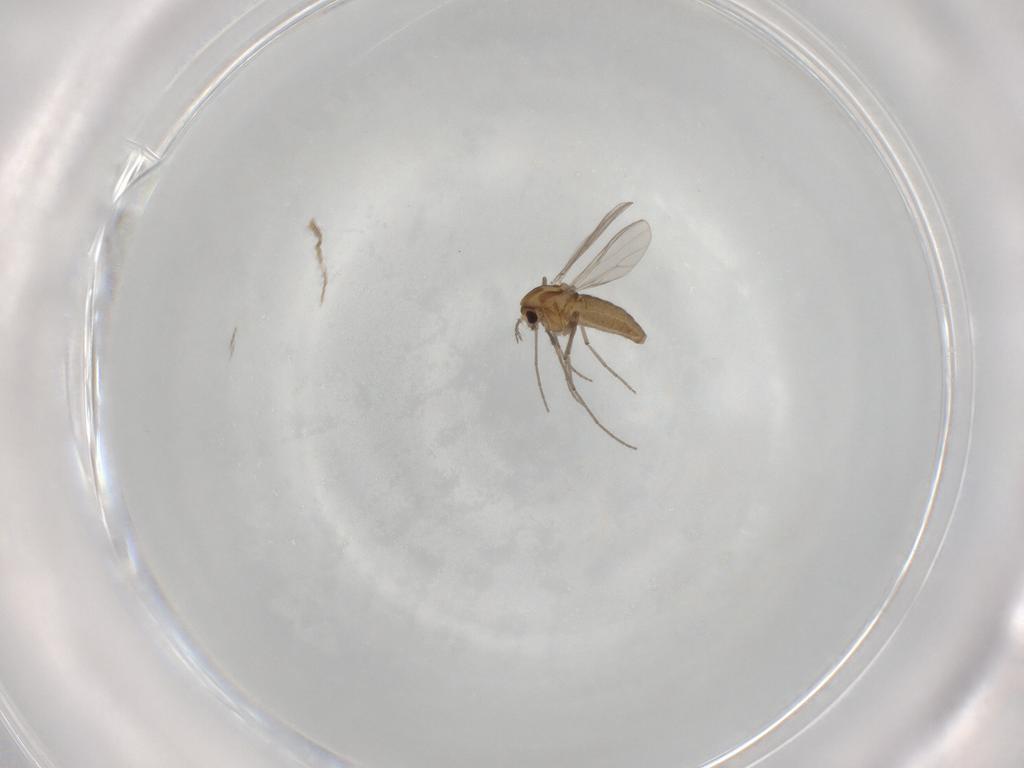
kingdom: Animalia
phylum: Arthropoda
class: Insecta
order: Diptera
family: Chironomidae
